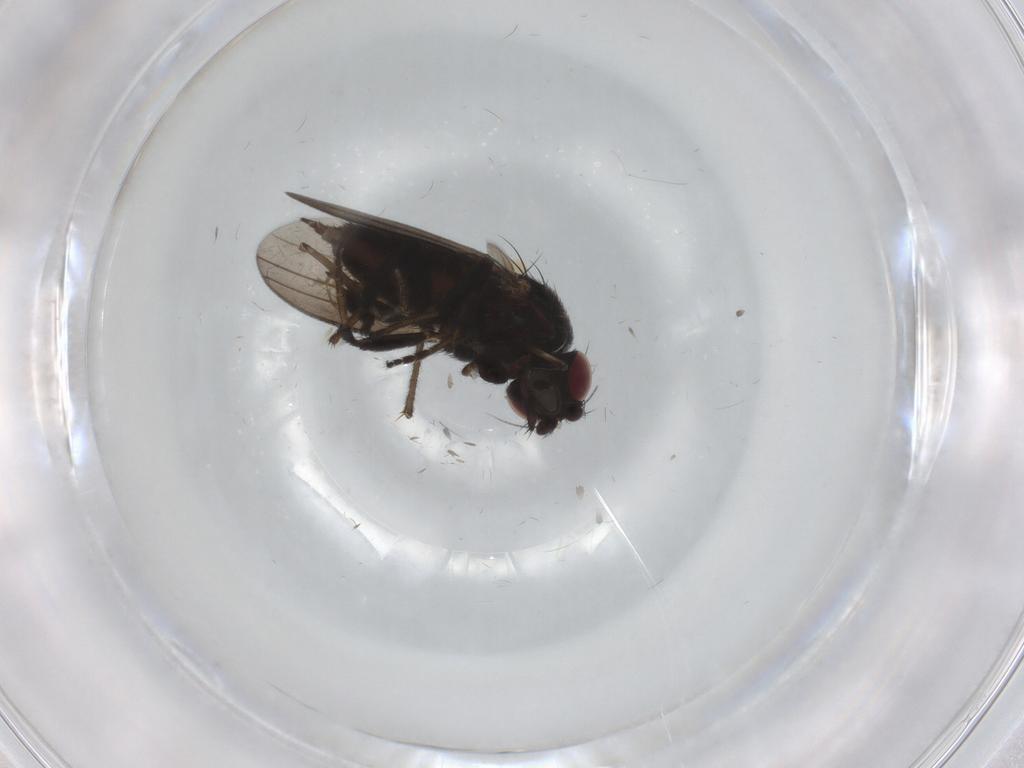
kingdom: Animalia
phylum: Arthropoda
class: Insecta
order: Diptera
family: Milichiidae
